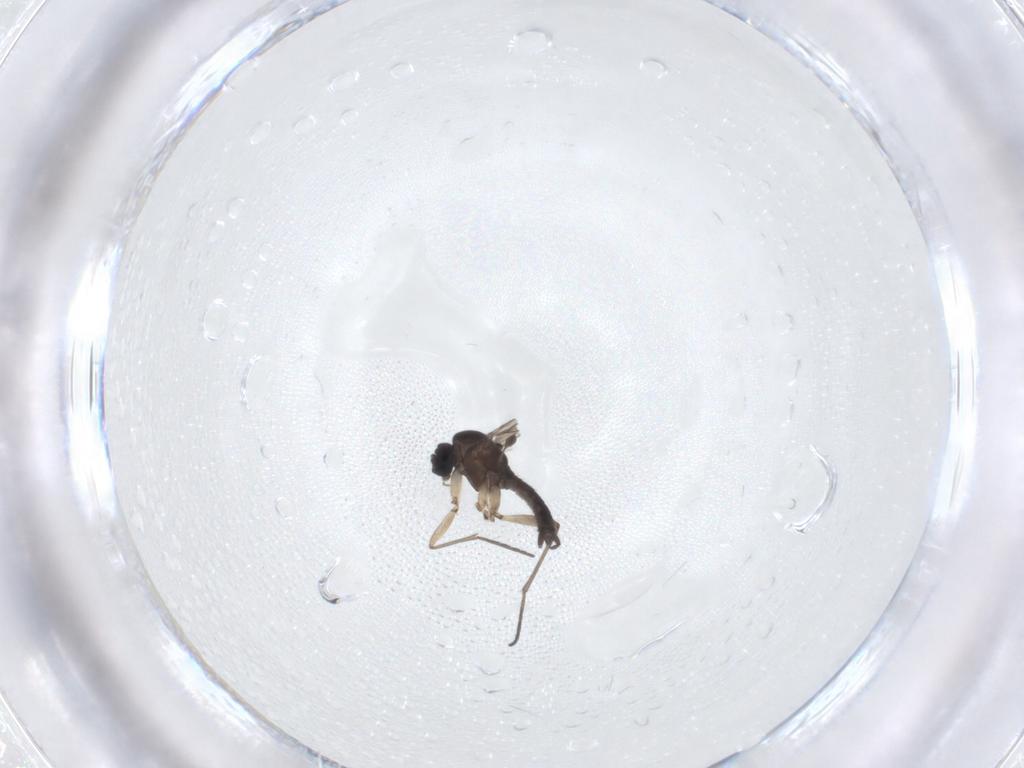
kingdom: Animalia
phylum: Arthropoda
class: Insecta
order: Diptera
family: Sciaridae
